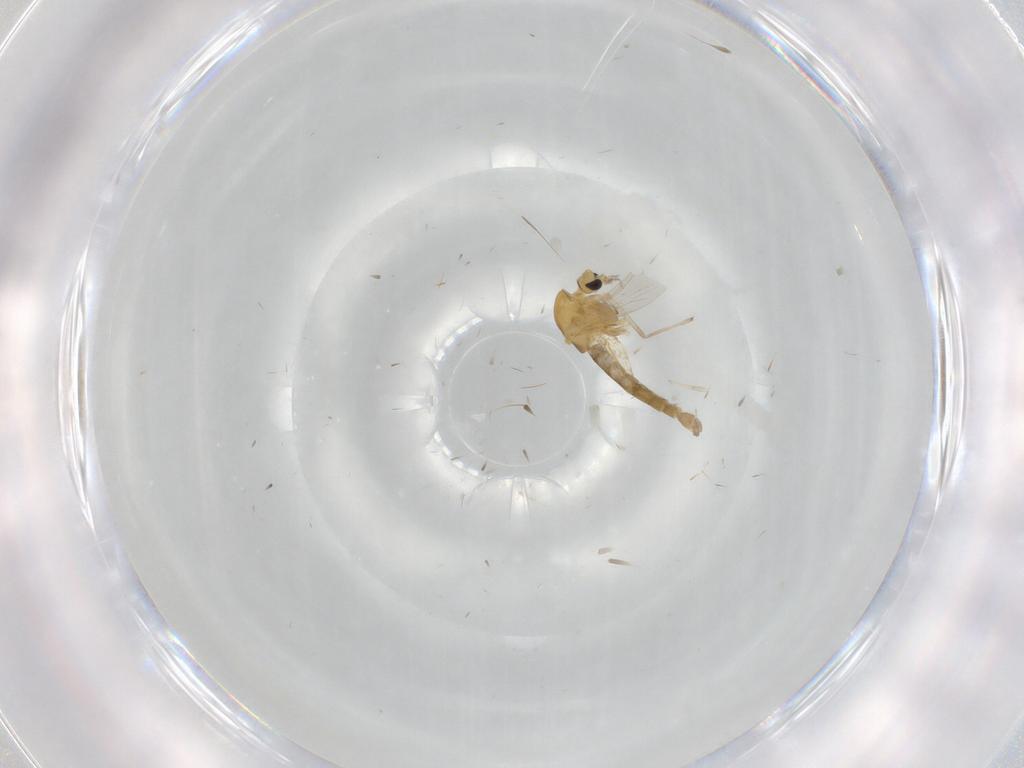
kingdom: Animalia
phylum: Arthropoda
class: Insecta
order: Diptera
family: Chironomidae
